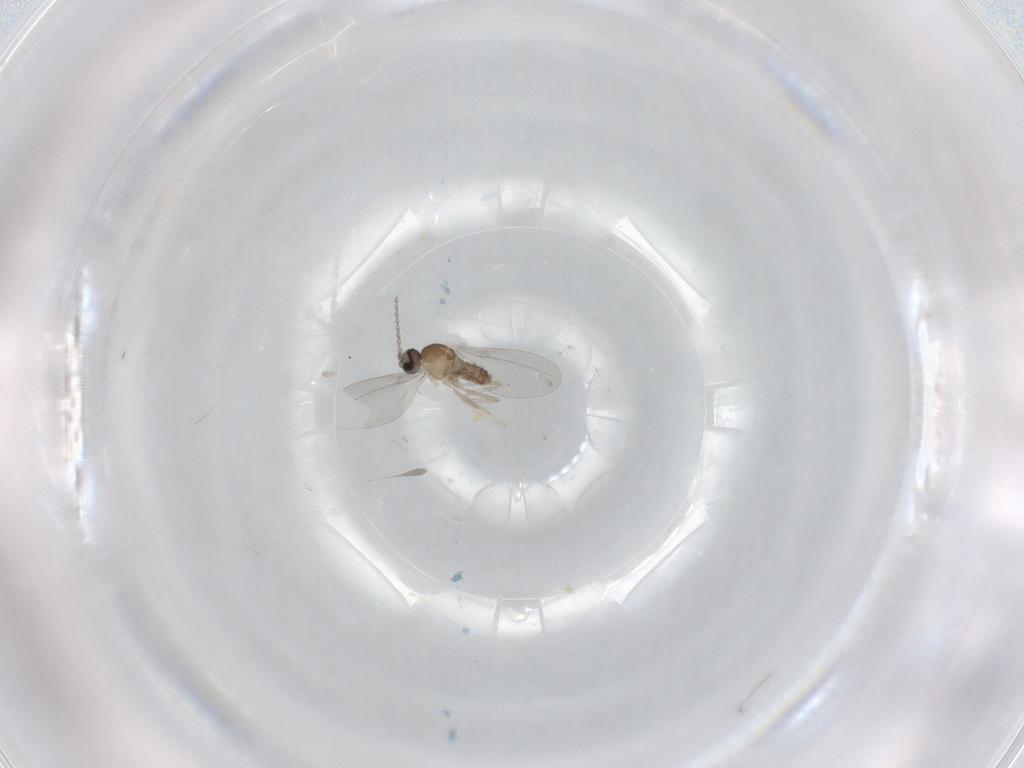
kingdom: Animalia
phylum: Arthropoda
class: Insecta
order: Diptera
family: Cecidomyiidae
